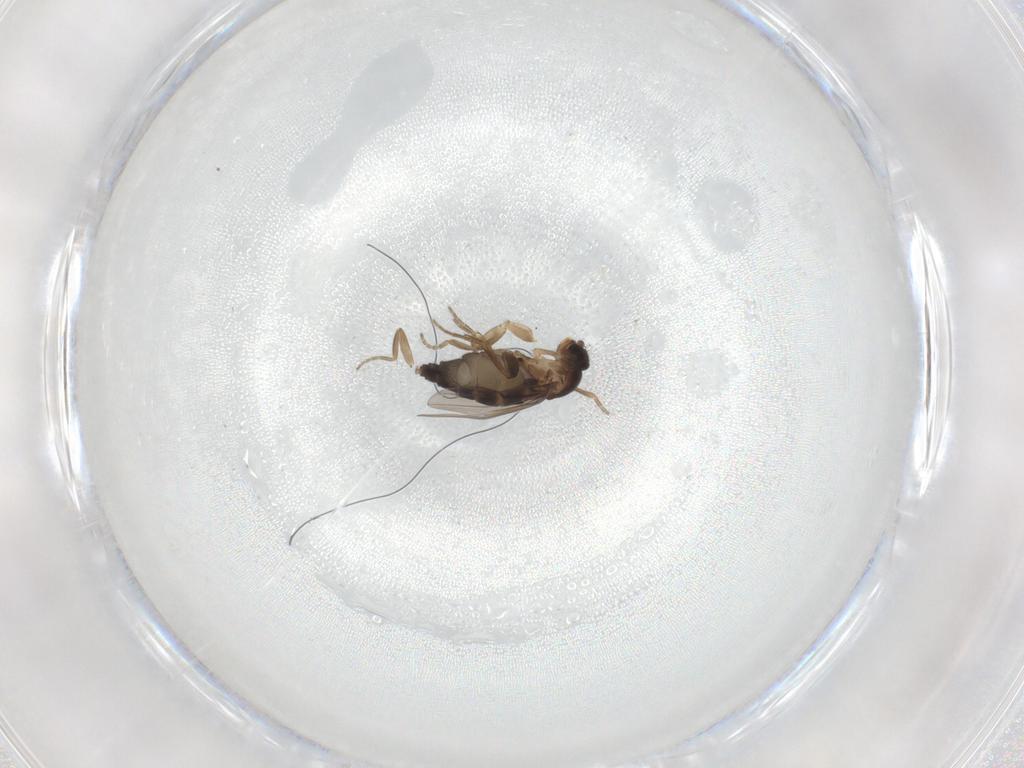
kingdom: Animalia
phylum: Arthropoda
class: Insecta
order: Diptera
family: Phoridae
